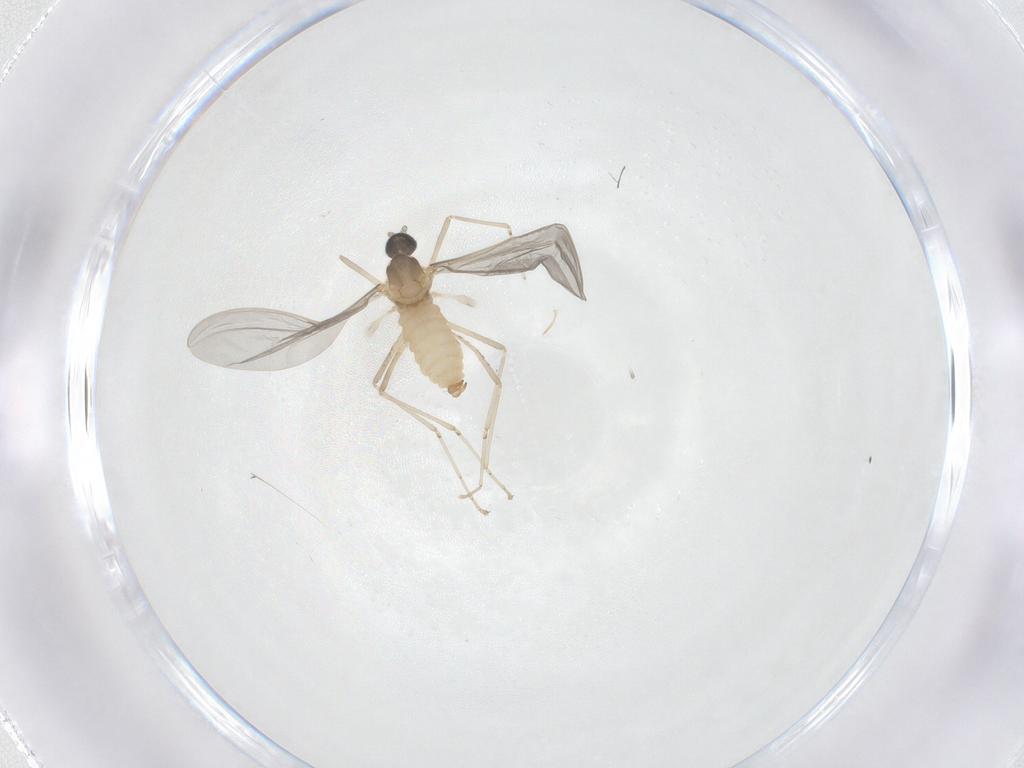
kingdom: Animalia
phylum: Arthropoda
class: Insecta
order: Diptera
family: Cecidomyiidae
